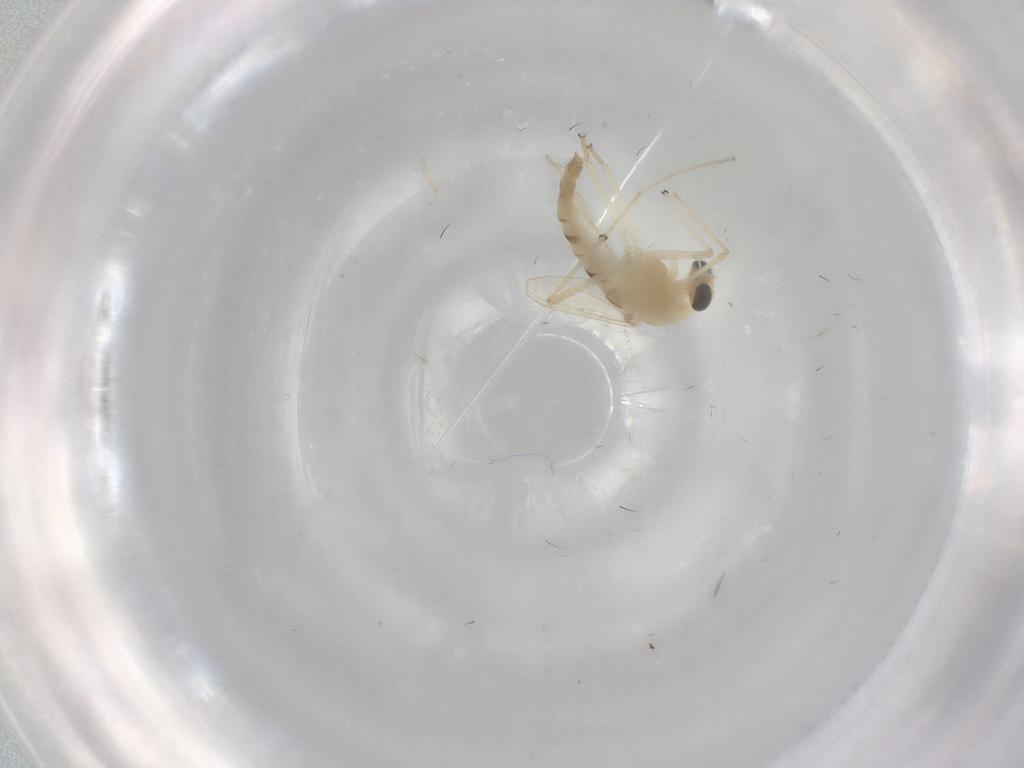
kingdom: Animalia
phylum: Arthropoda
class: Insecta
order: Diptera
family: Chironomidae
